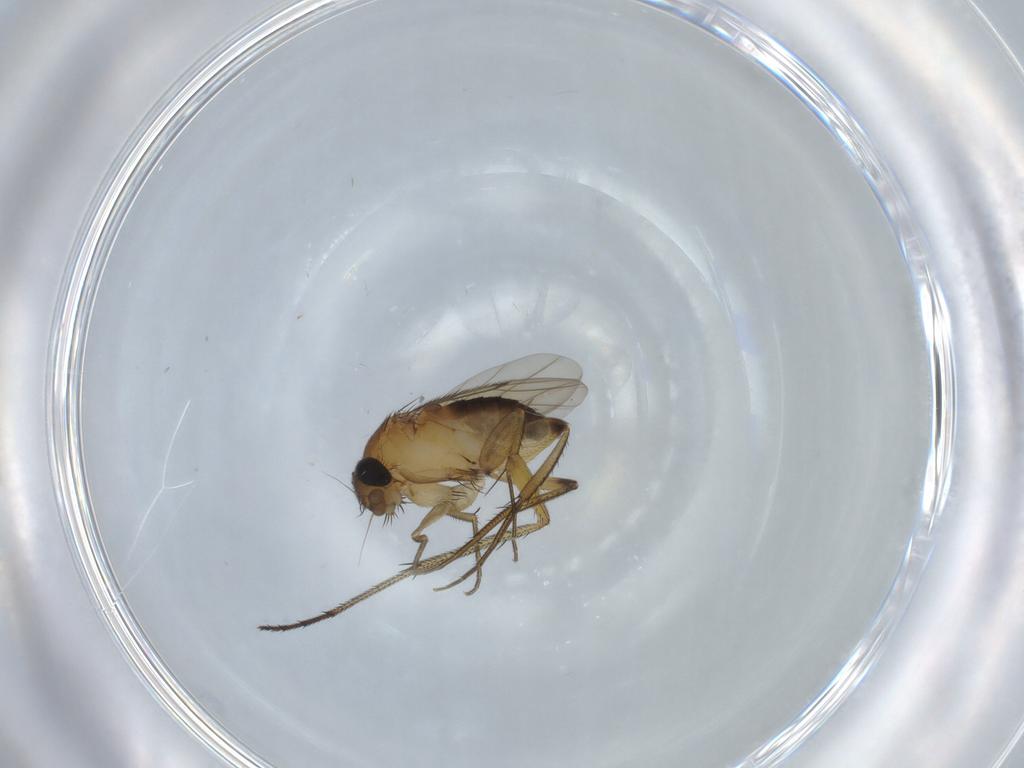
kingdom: Animalia
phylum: Arthropoda
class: Insecta
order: Diptera
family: Phoridae
